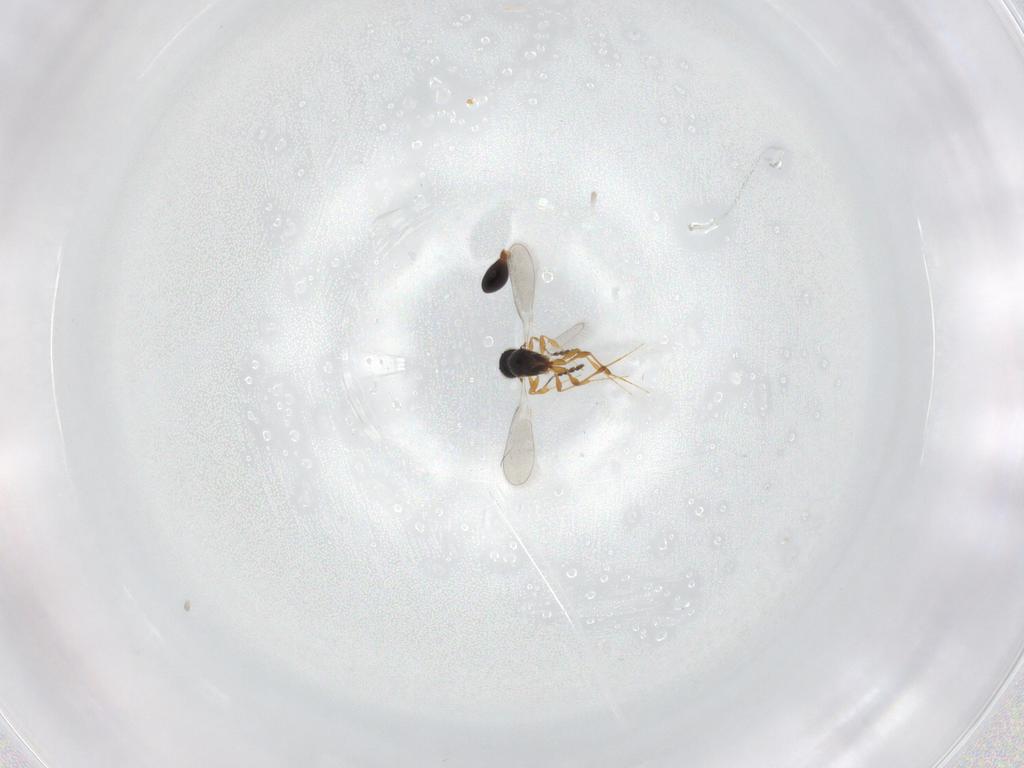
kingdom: Animalia
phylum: Arthropoda
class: Insecta
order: Hymenoptera
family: Platygastridae
